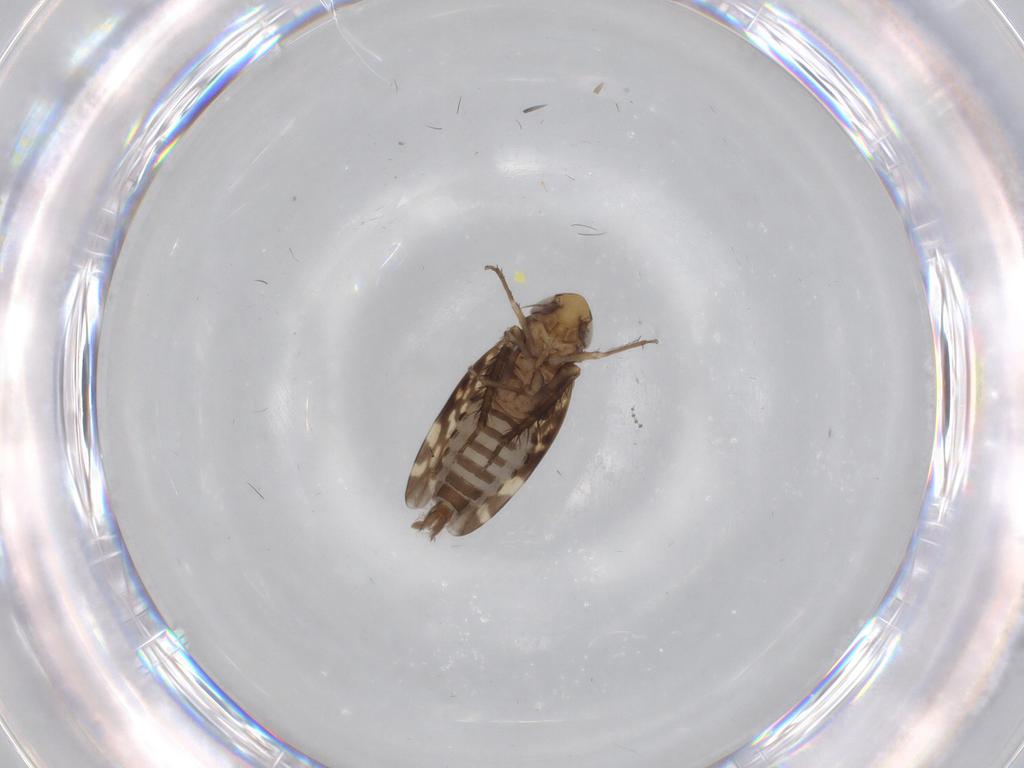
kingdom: Animalia
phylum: Arthropoda
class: Insecta
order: Hemiptera
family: Cicadellidae
